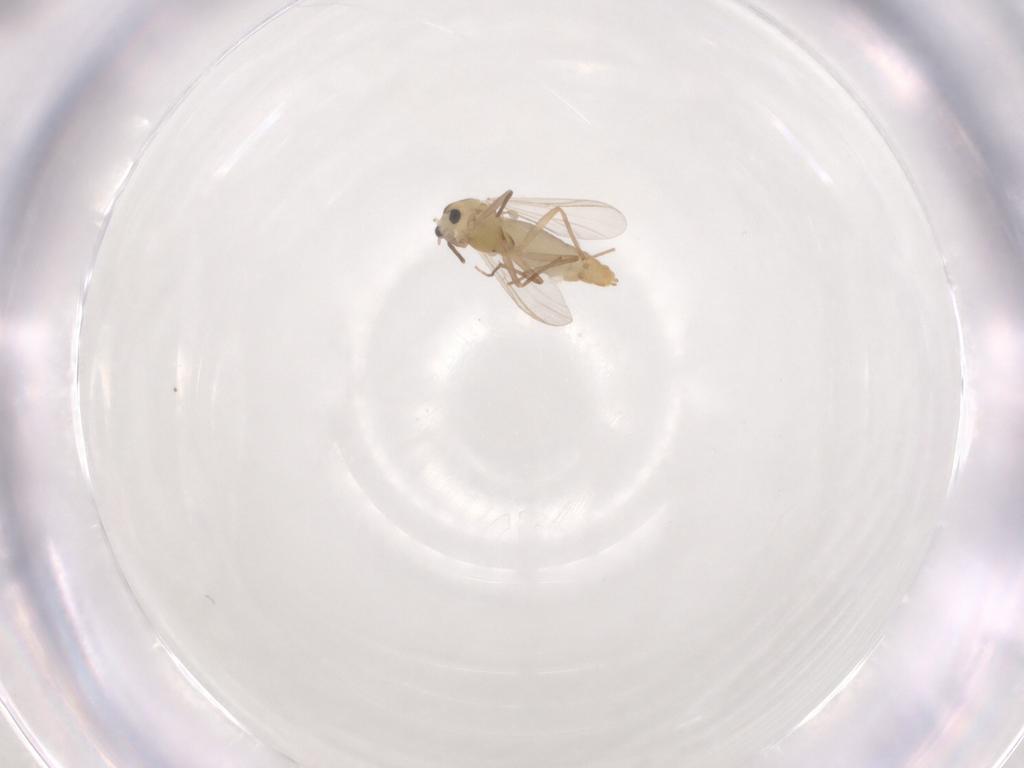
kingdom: Animalia
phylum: Arthropoda
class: Insecta
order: Diptera
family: Chironomidae
